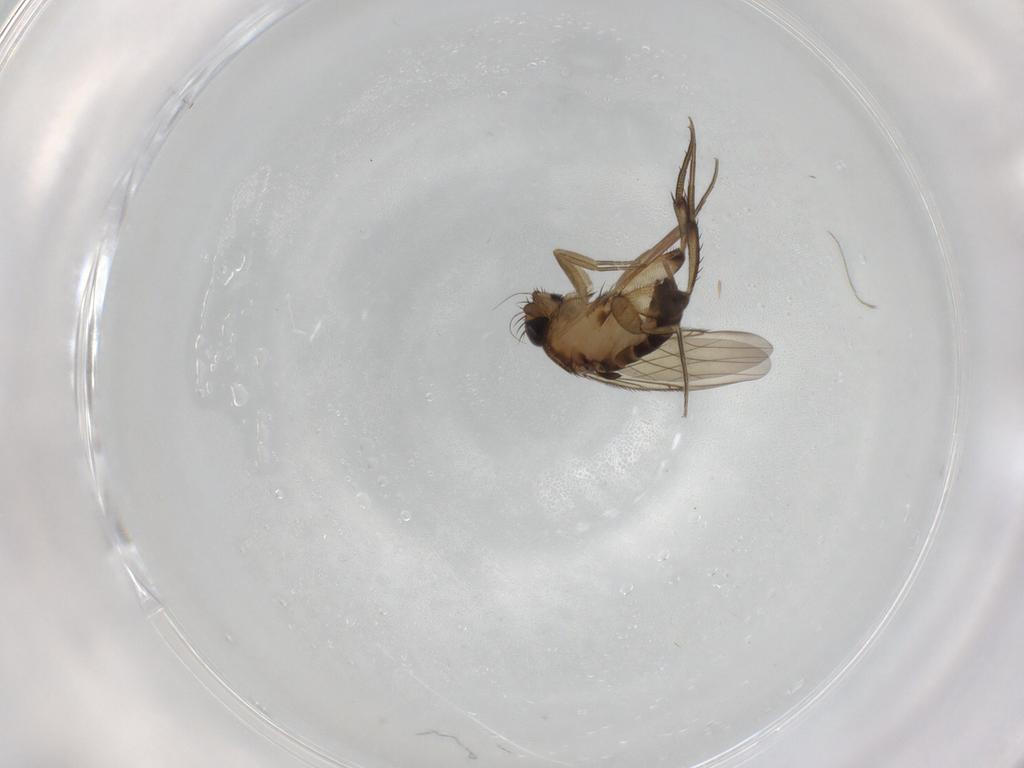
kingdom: Animalia
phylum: Arthropoda
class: Insecta
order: Diptera
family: Phoridae
